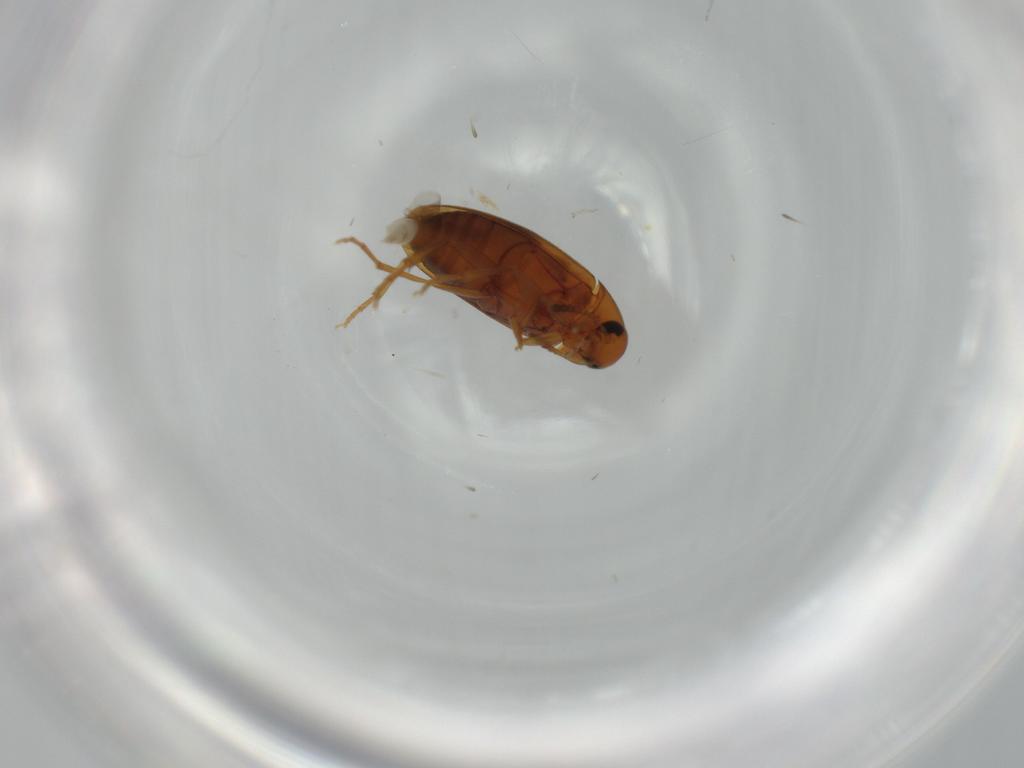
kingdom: Animalia
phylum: Arthropoda
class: Insecta
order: Coleoptera
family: Scraptiidae
